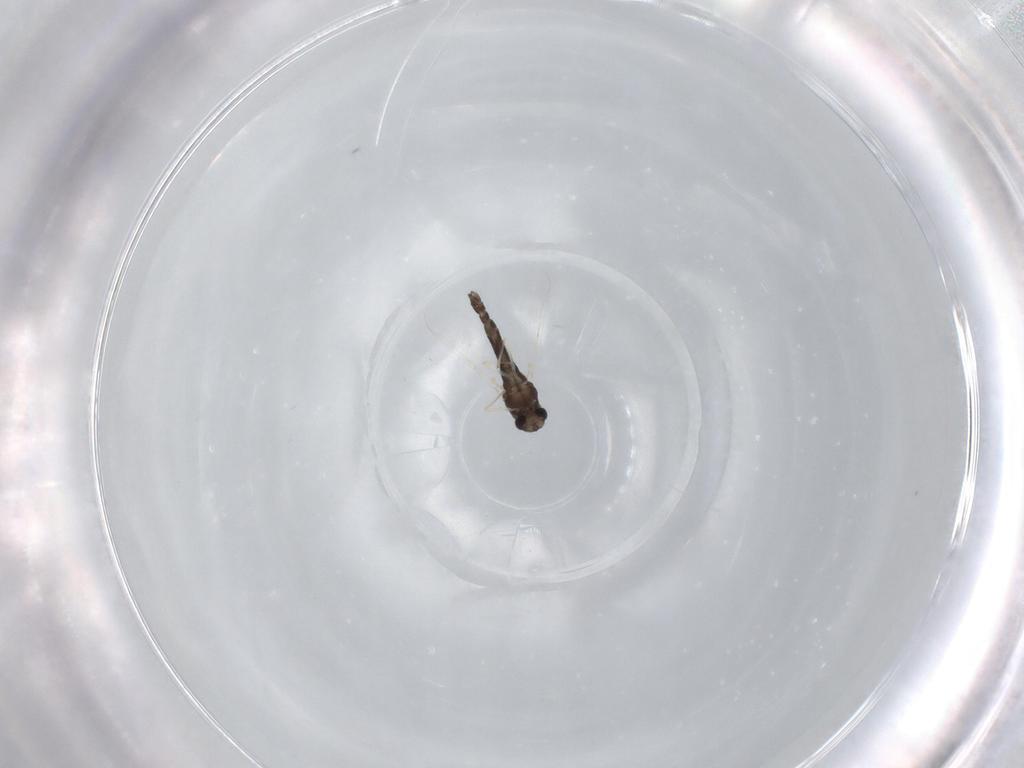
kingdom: Animalia
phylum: Arthropoda
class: Insecta
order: Diptera
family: Chironomidae
